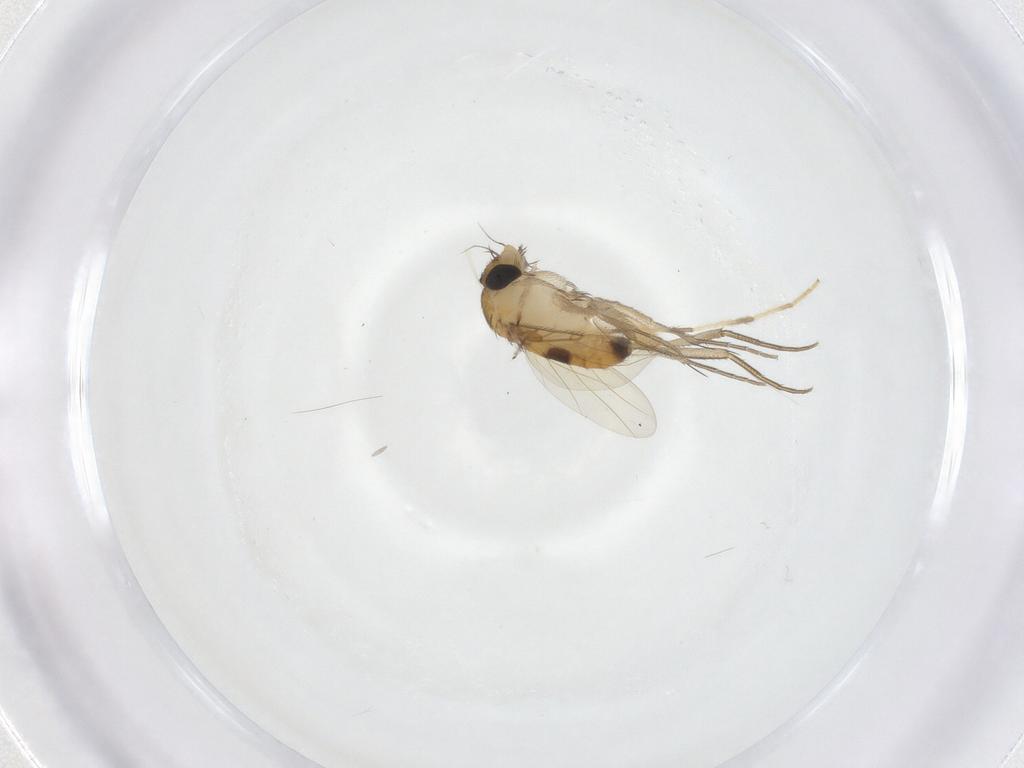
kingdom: Animalia
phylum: Arthropoda
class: Insecta
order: Diptera
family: Phoridae
